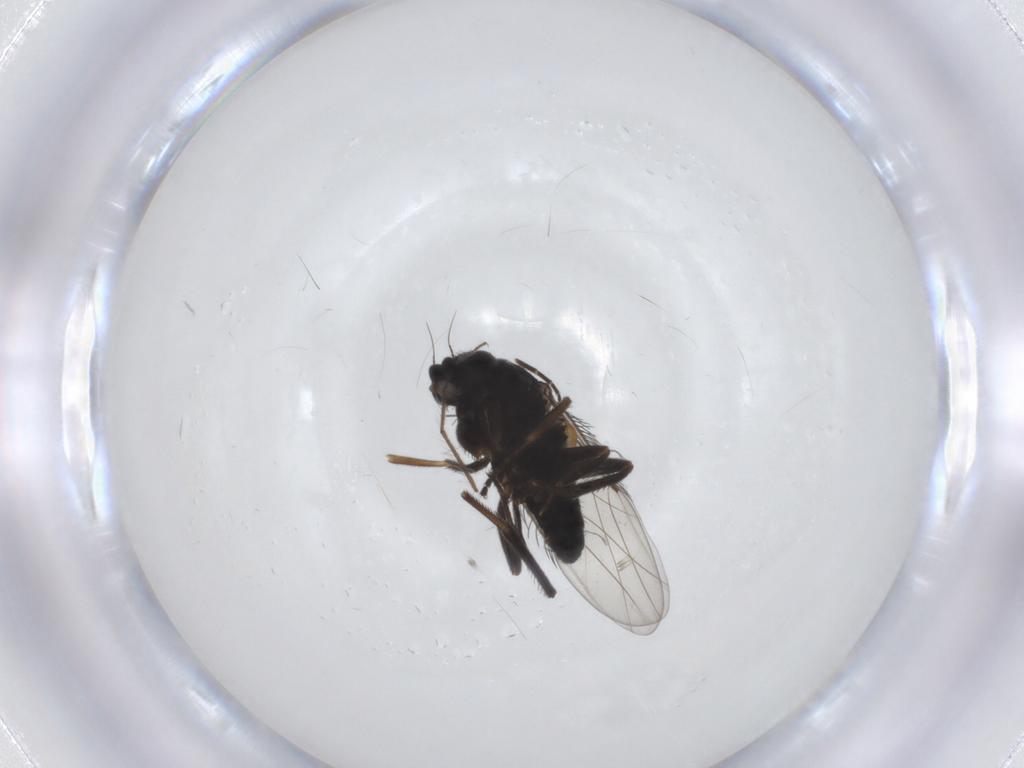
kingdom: Animalia
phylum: Arthropoda
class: Insecta
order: Diptera
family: Phoridae
